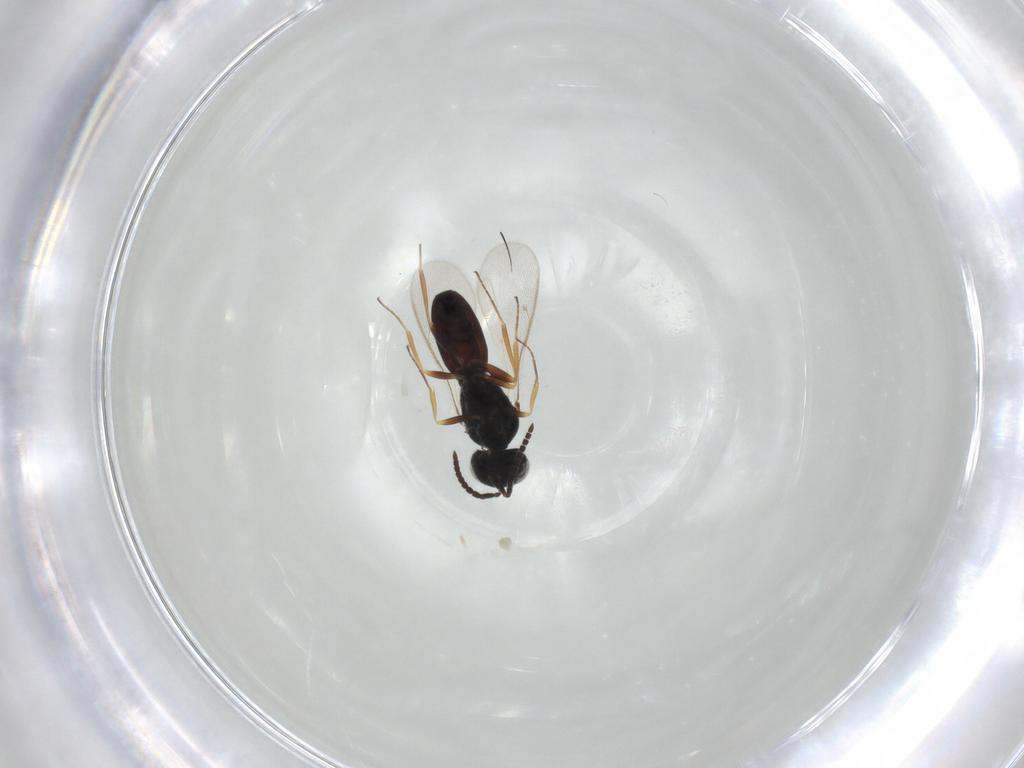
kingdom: Animalia
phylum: Arthropoda
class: Insecta
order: Hymenoptera
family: Scelionidae
